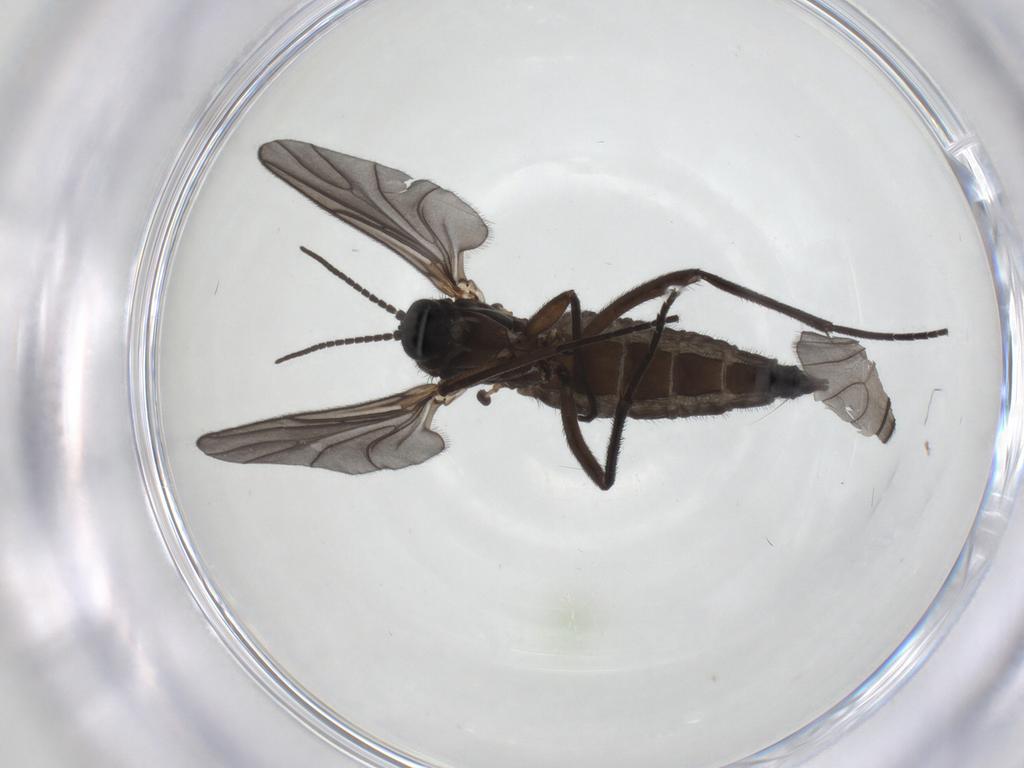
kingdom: Animalia
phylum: Arthropoda
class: Insecta
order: Diptera
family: Sciaridae
